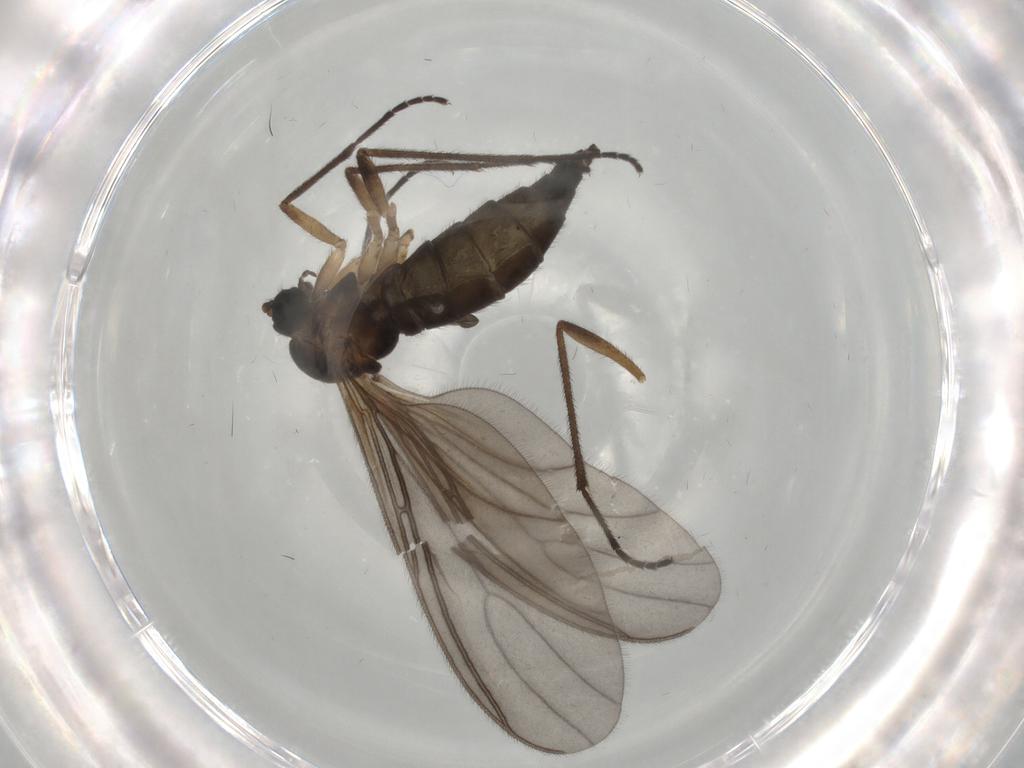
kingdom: Animalia
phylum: Arthropoda
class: Insecta
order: Diptera
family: Sciaridae
